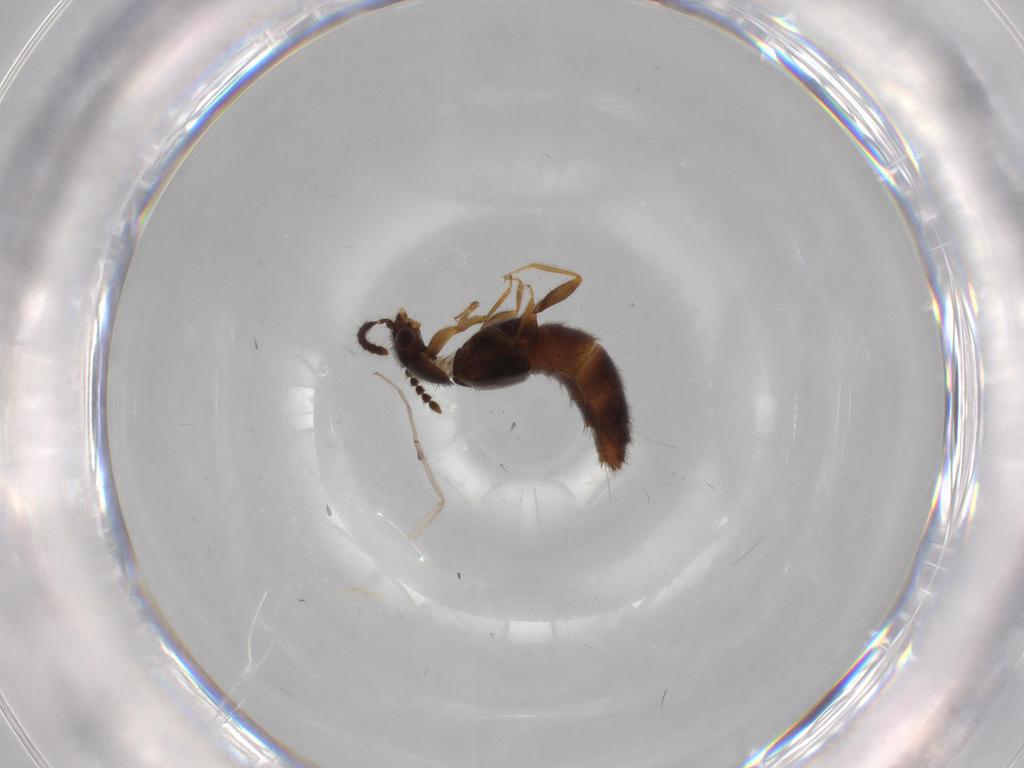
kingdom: Animalia
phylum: Arthropoda
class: Insecta
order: Coleoptera
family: Staphylinidae
